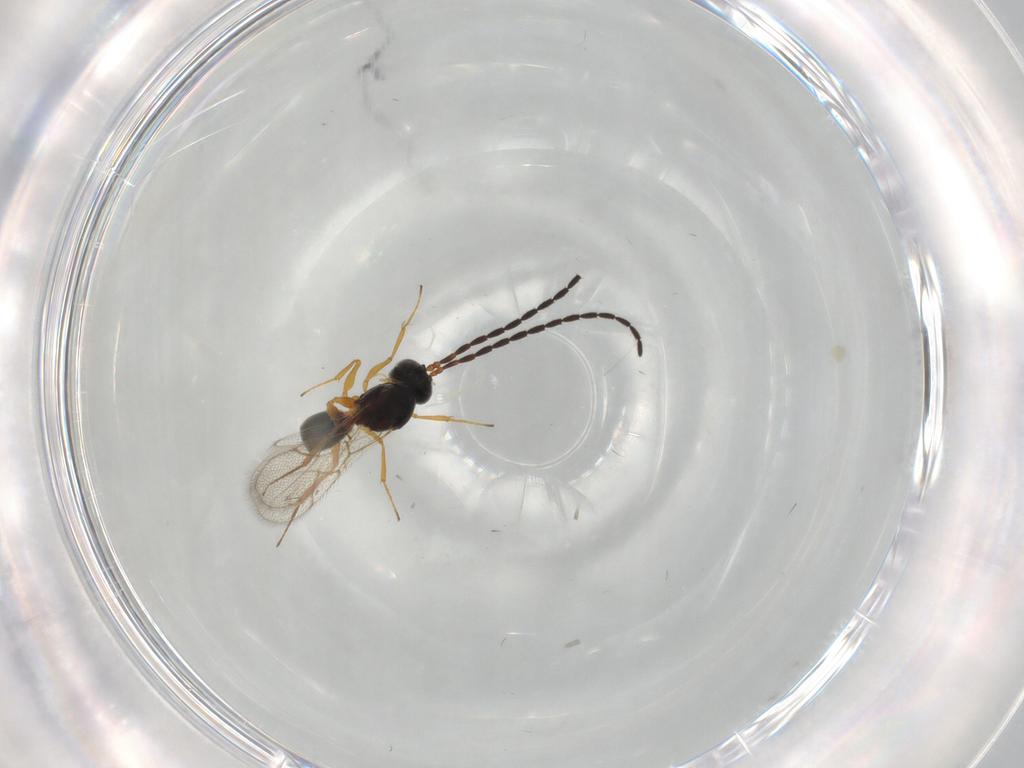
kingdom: Animalia
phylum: Arthropoda
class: Insecta
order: Hymenoptera
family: Figitidae
